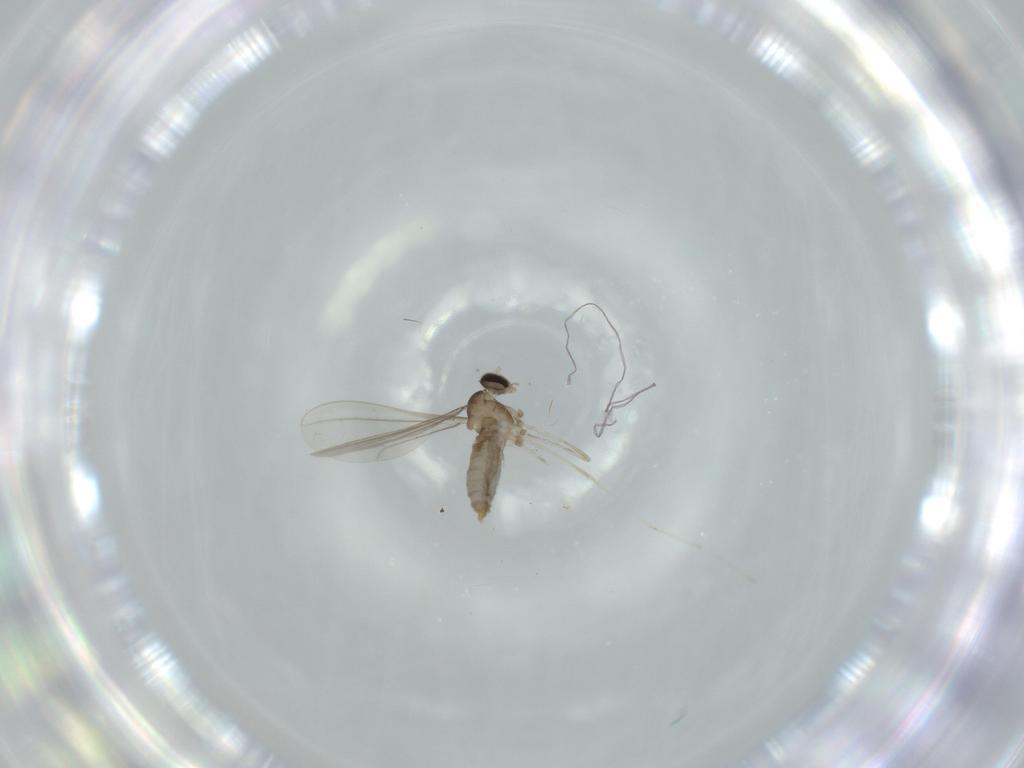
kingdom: Animalia
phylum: Arthropoda
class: Insecta
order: Diptera
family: Cecidomyiidae
